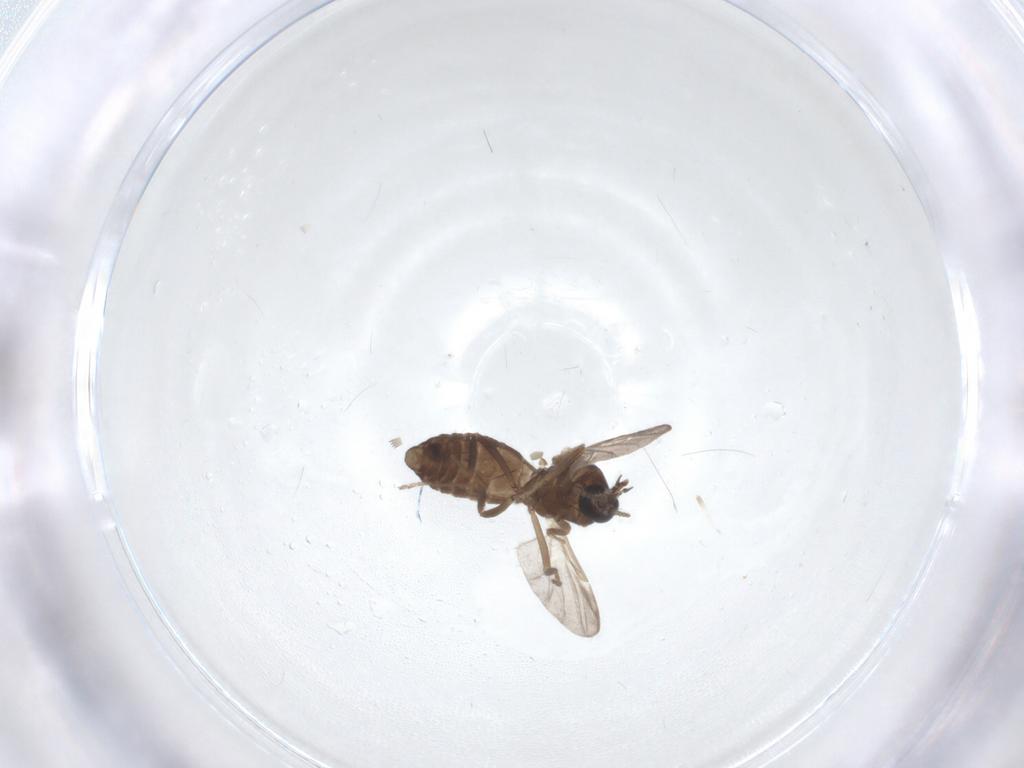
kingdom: Animalia
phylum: Arthropoda
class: Insecta
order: Diptera
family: Ceratopogonidae
